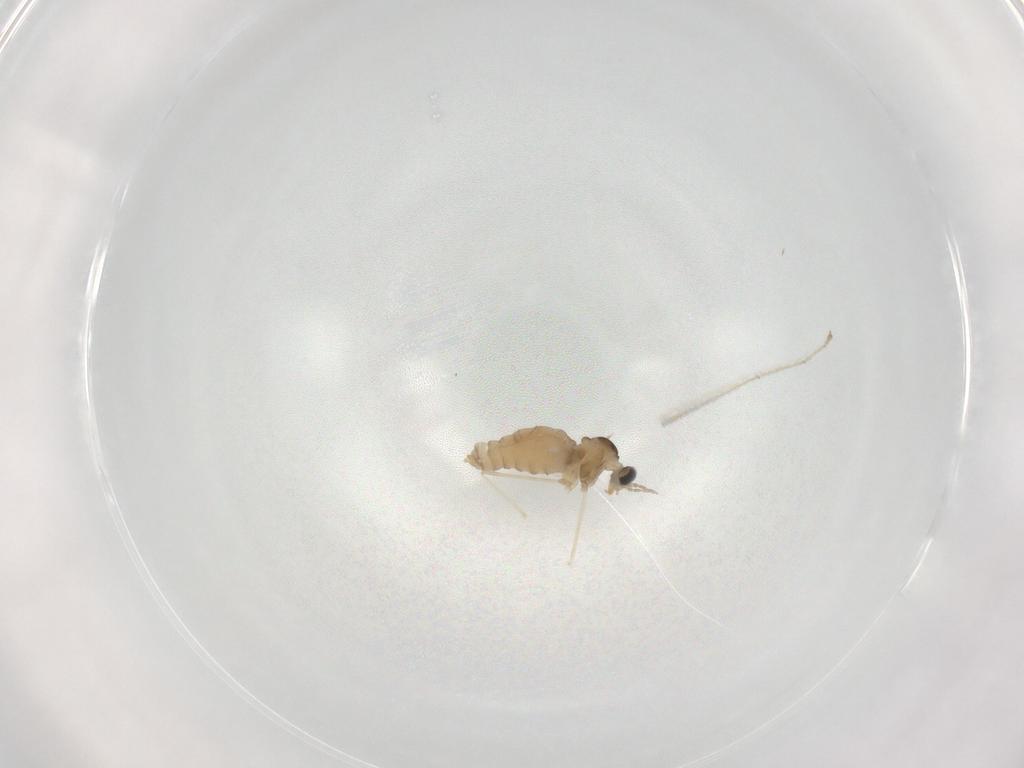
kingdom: Animalia
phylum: Arthropoda
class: Insecta
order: Diptera
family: Cecidomyiidae
